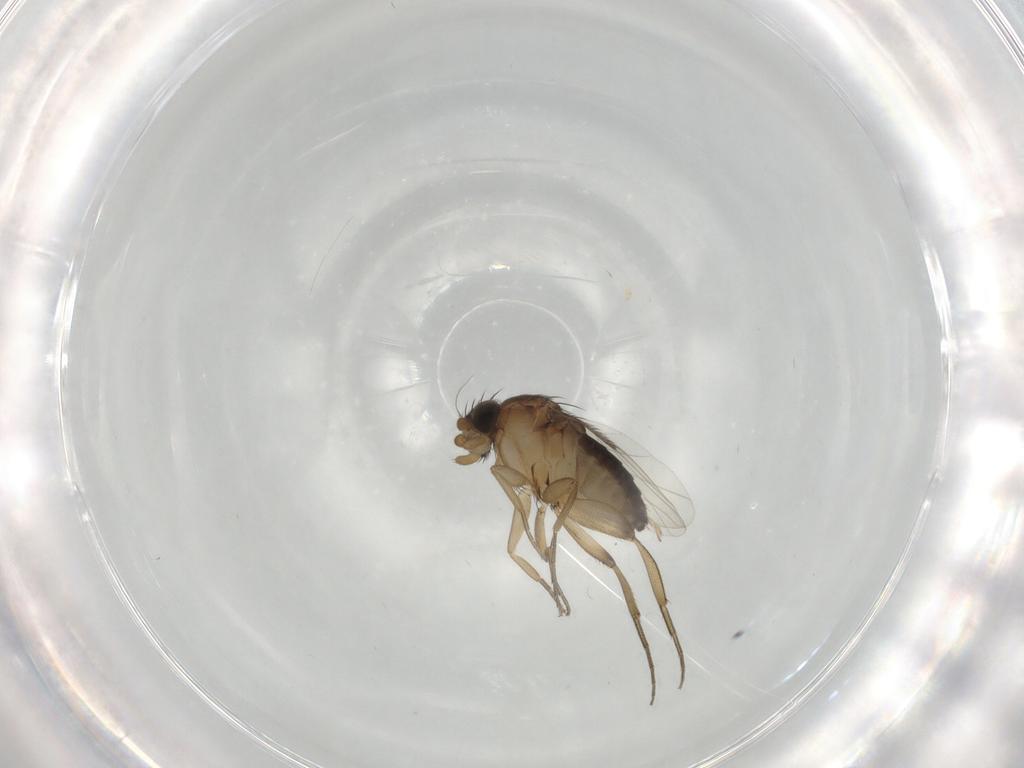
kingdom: Animalia
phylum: Arthropoda
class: Insecta
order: Diptera
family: Phoridae
